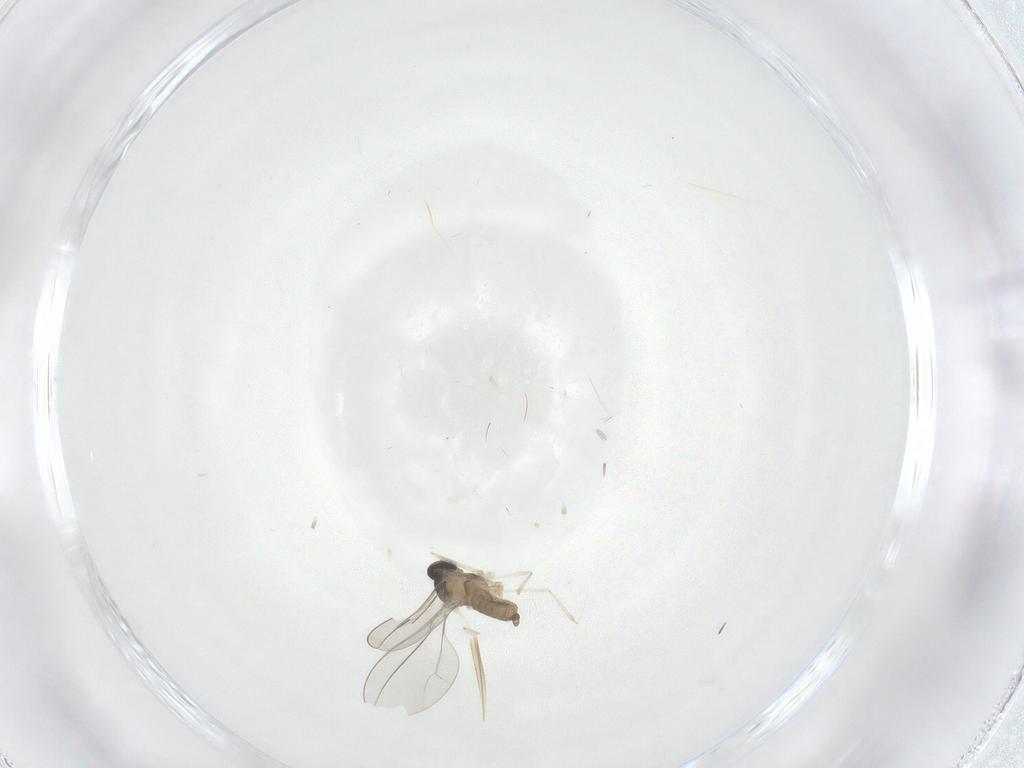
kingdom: Animalia
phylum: Arthropoda
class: Insecta
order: Diptera
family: Cecidomyiidae
